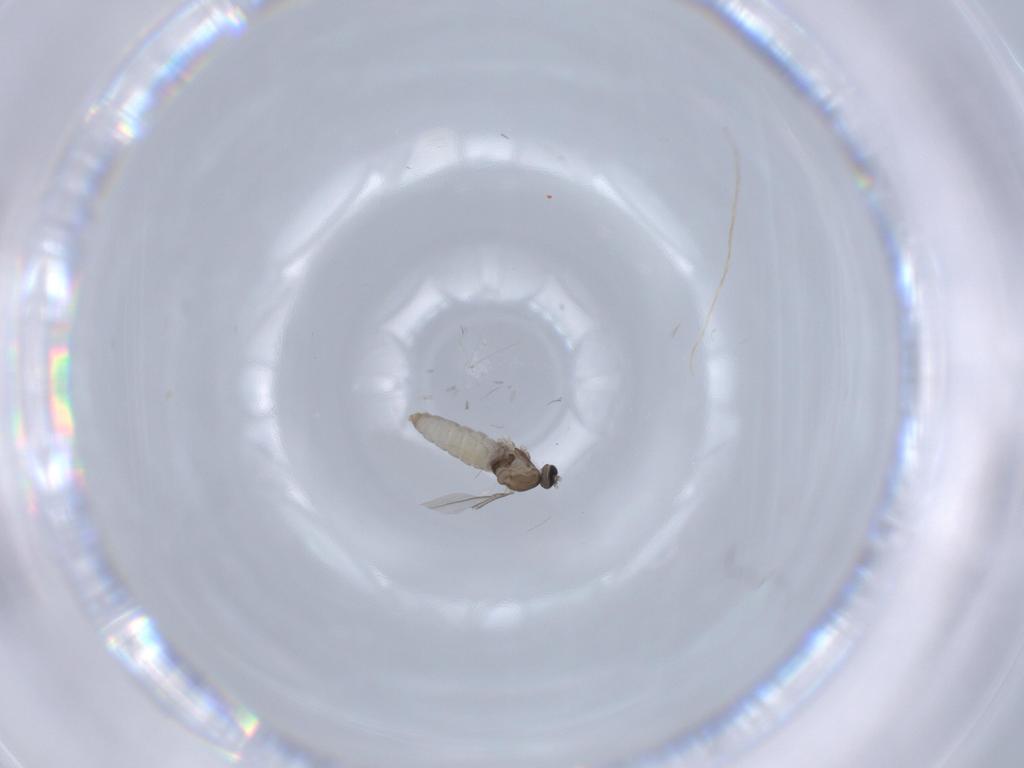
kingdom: Animalia
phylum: Arthropoda
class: Insecta
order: Diptera
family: Cecidomyiidae
